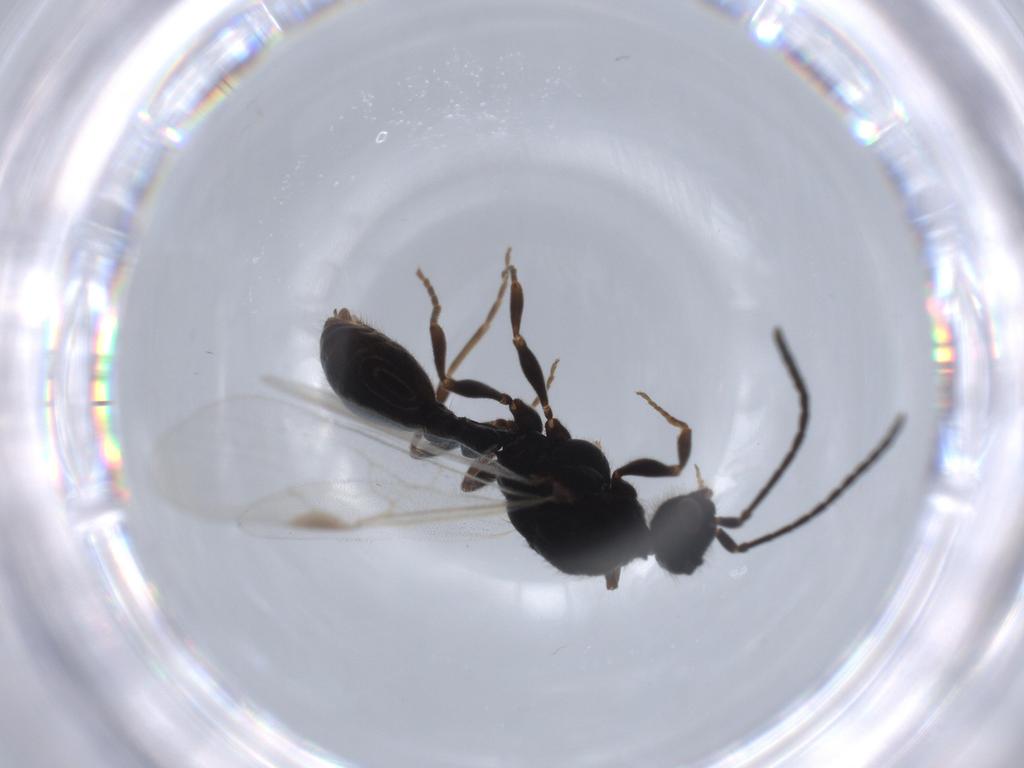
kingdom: Animalia
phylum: Arthropoda
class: Insecta
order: Hymenoptera
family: Formicidae
